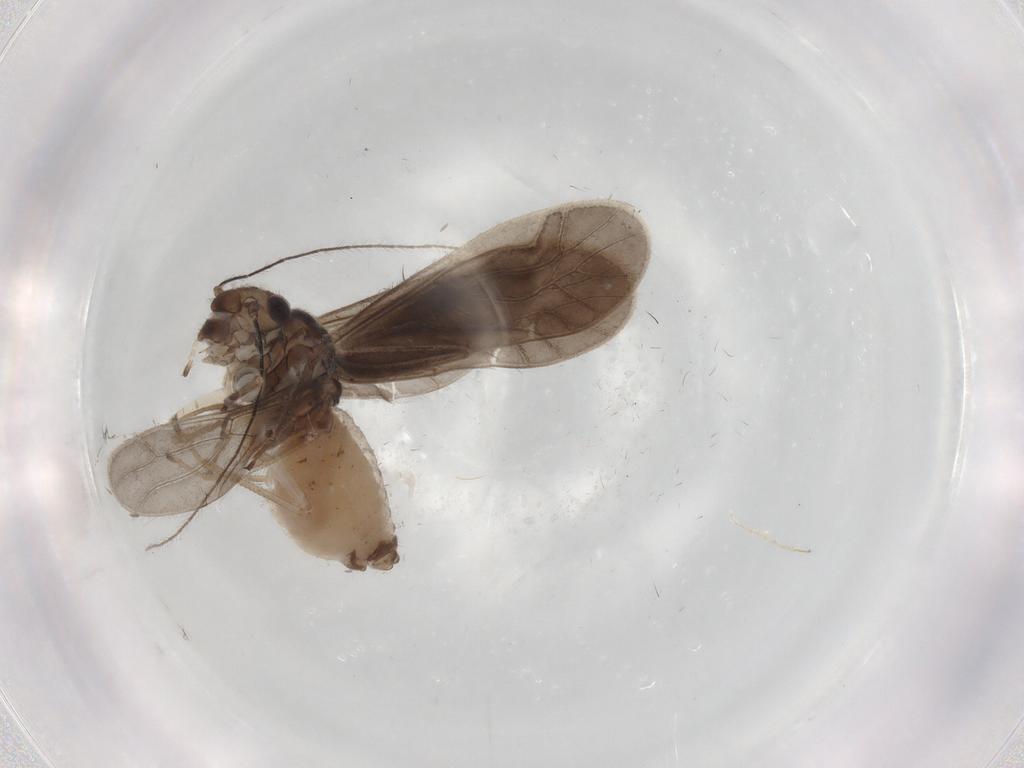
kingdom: Animalia
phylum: Arthropoda
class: Insecta
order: Psocodea
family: Caeciliusidae
